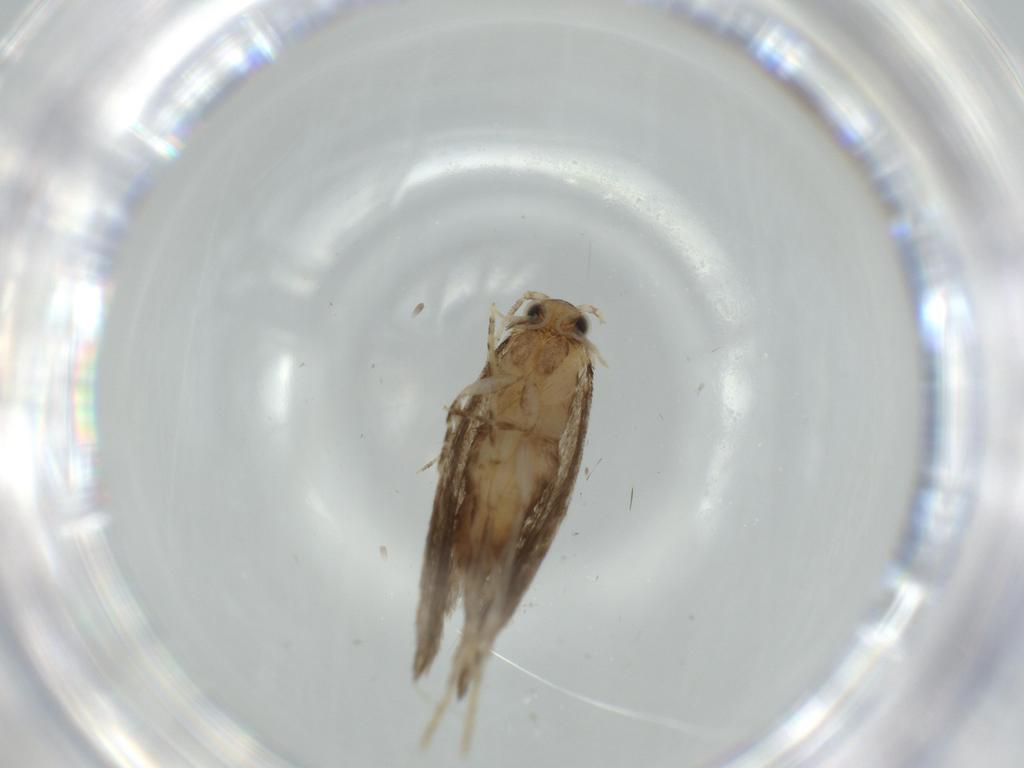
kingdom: Animalia
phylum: Arthropoda
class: Insecta
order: Lepidoptera
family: Tineidae
